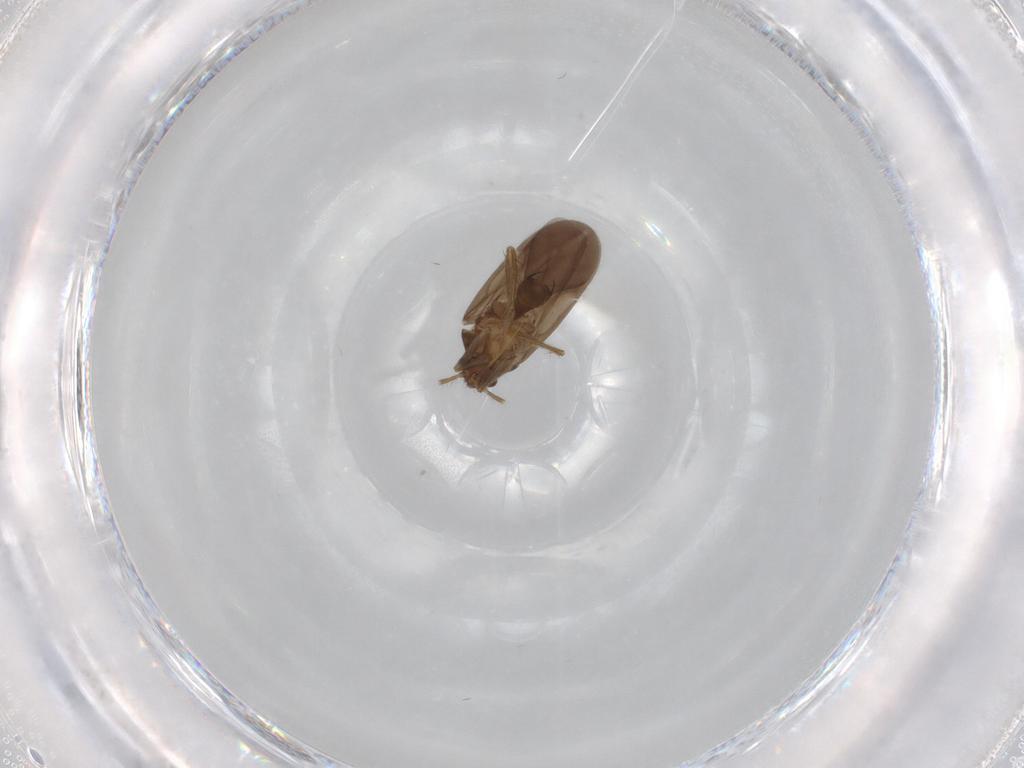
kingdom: Animalia
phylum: Arthropoda
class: Insecta
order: Hemiptera
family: Ceratocombidae
